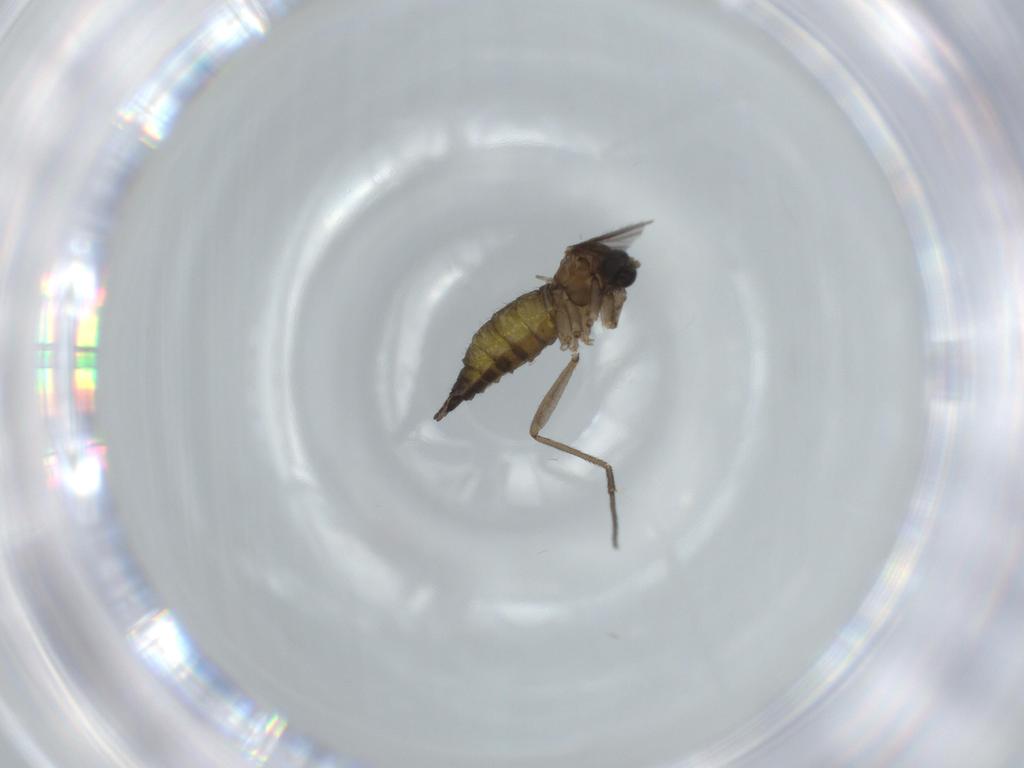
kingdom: Animalia
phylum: Arthropoda
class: Insecta
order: Diptera
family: Sciaridae
